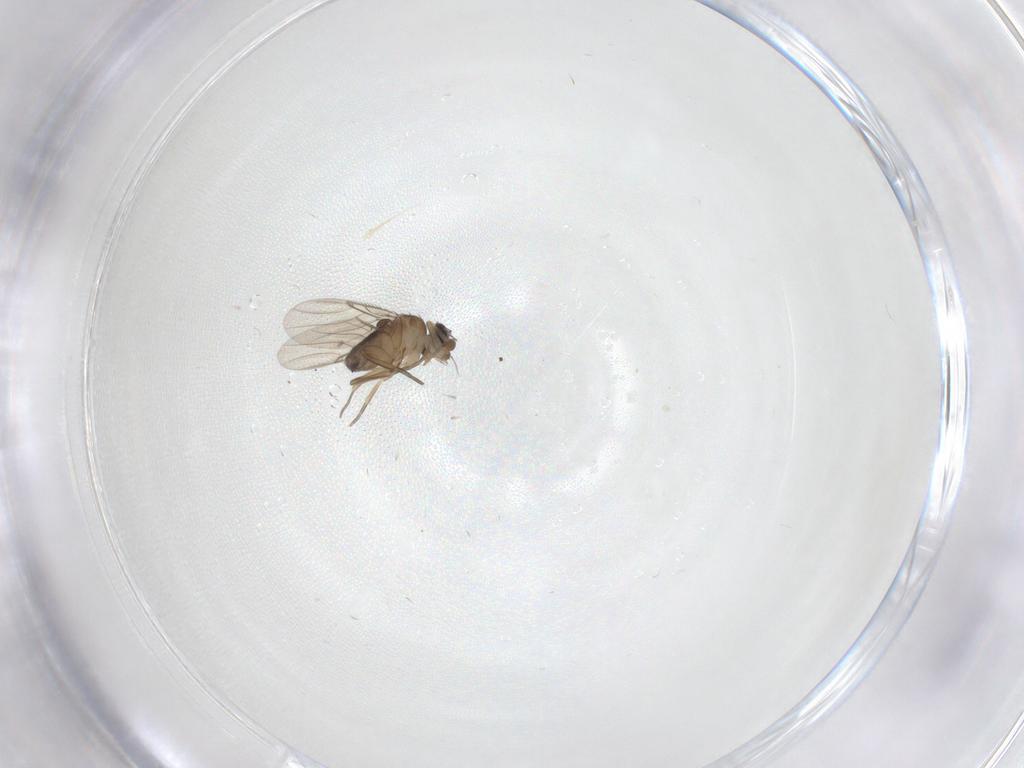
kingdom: Animalia
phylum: Arthropoda
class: Insecta
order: Diptera
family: Phoridae
